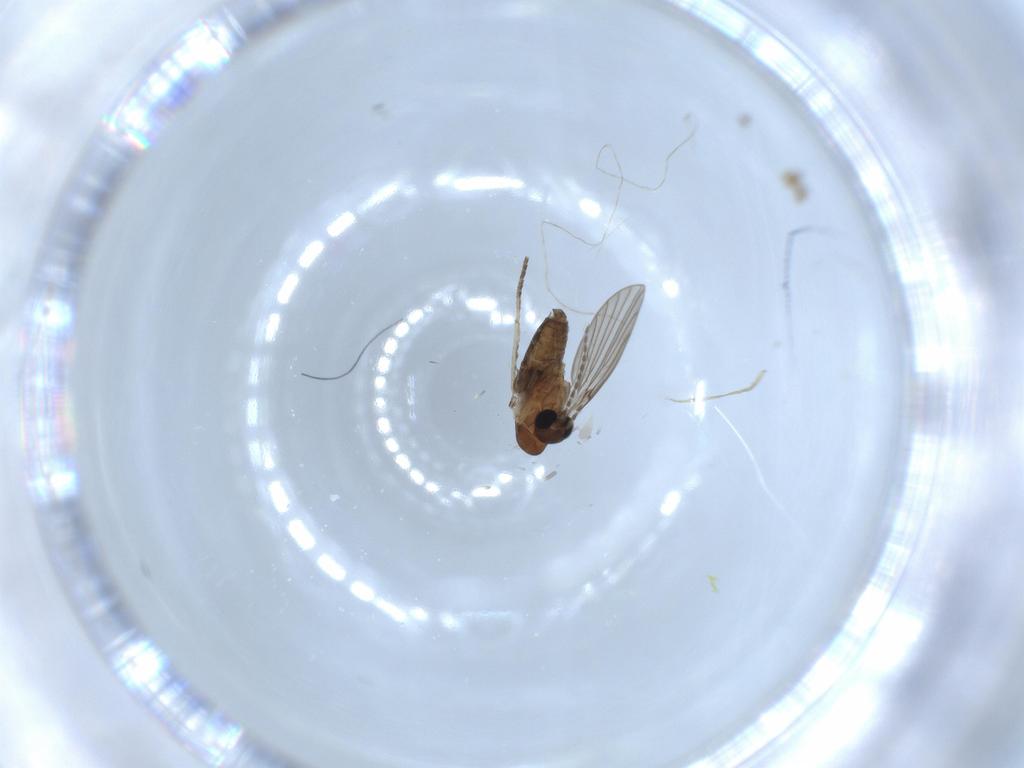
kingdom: Animalia
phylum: Arthropoda
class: Insecta
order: Diptera
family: Psychodidae
